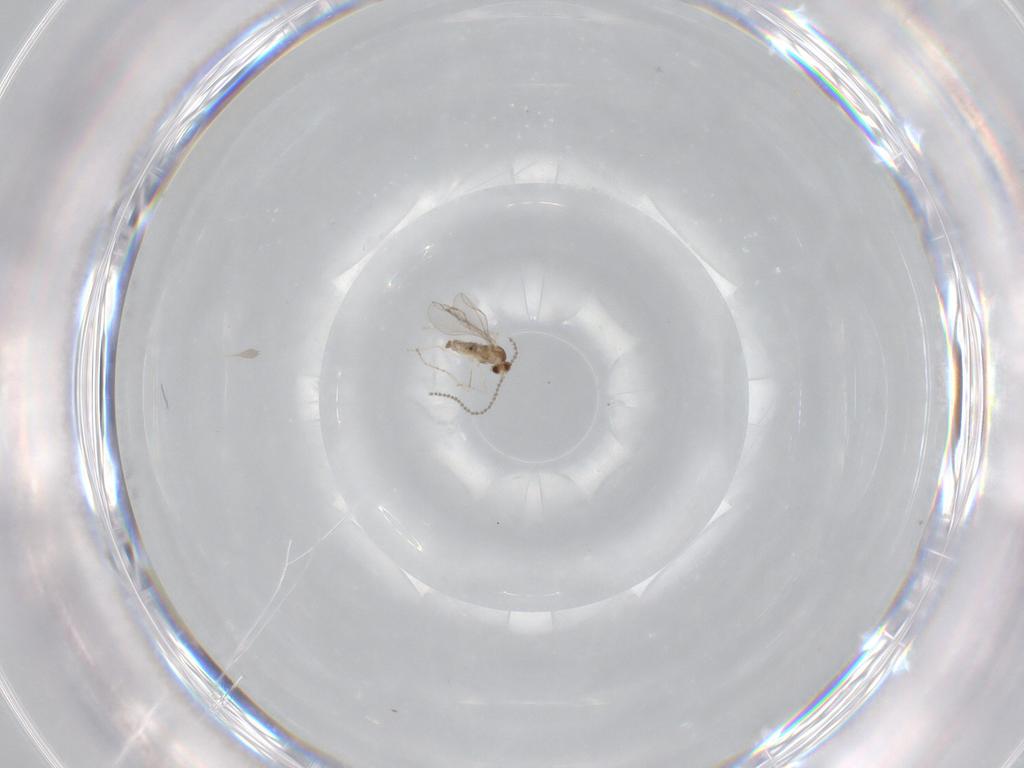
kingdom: Animalia
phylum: Arthropoda
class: Insecta
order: Diptera
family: Cecidomyiidae
